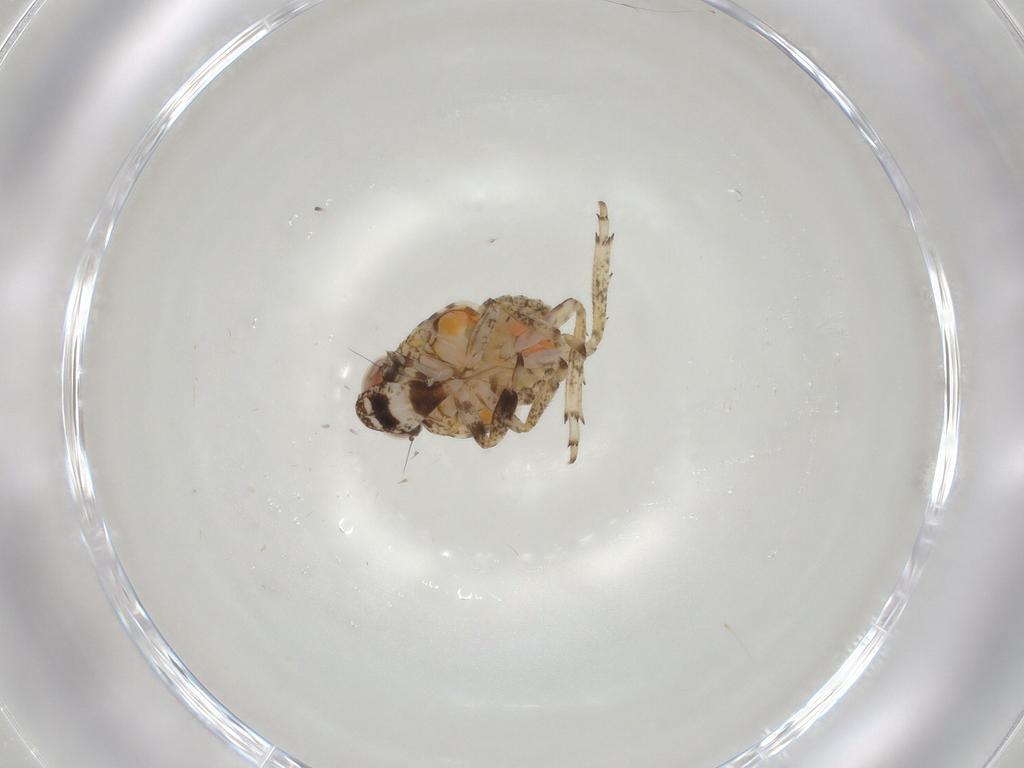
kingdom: Animalia
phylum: Arthropoda
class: Insecta
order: Hemiptera
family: Issidae
